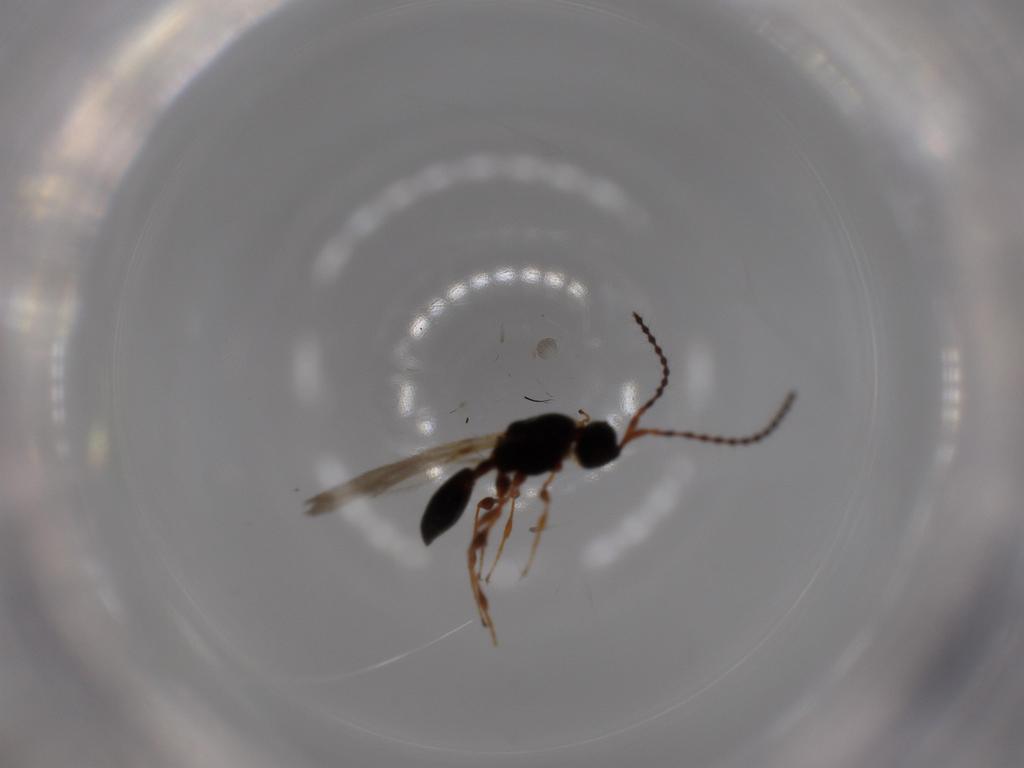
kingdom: Animalia
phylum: Arthropoda
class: Insecta
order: Hymenoptera
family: Diapriidae
